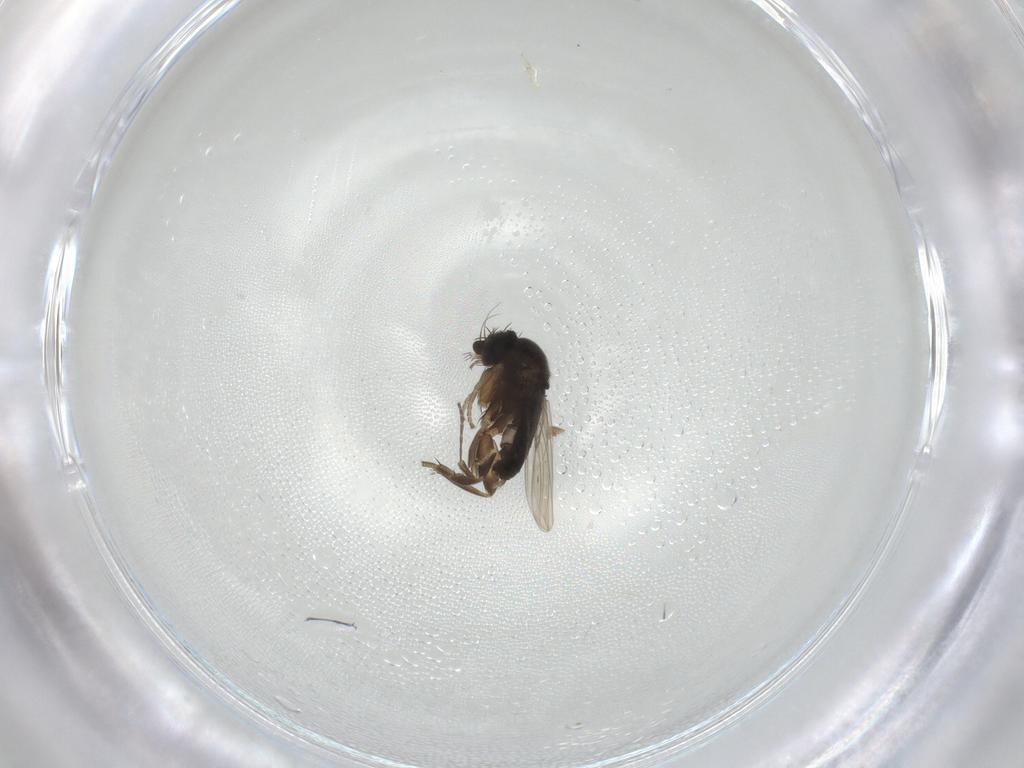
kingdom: Animalia
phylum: Arthropoda
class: Insecta
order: Diptera
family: Phoridae
